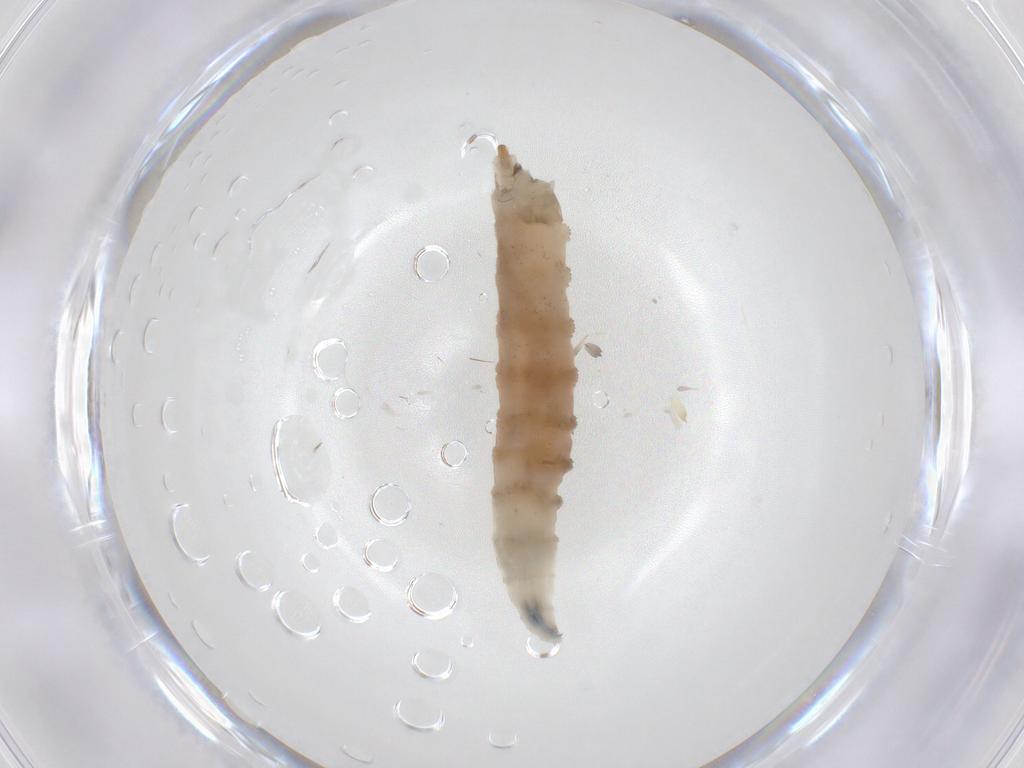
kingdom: Animalia
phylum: Arthropoda
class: Insecta
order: Diptera
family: Drosophilidae
